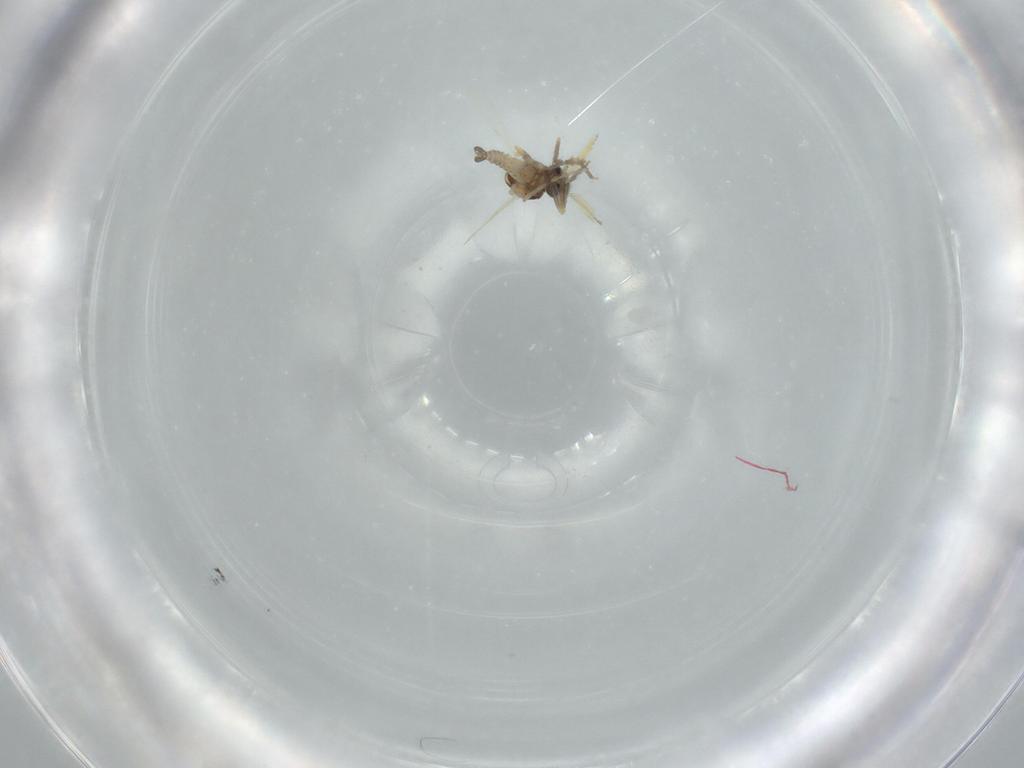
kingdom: Animalia
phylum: Arthropoda
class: Insecta
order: Diptera
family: Ceratopogonidae
